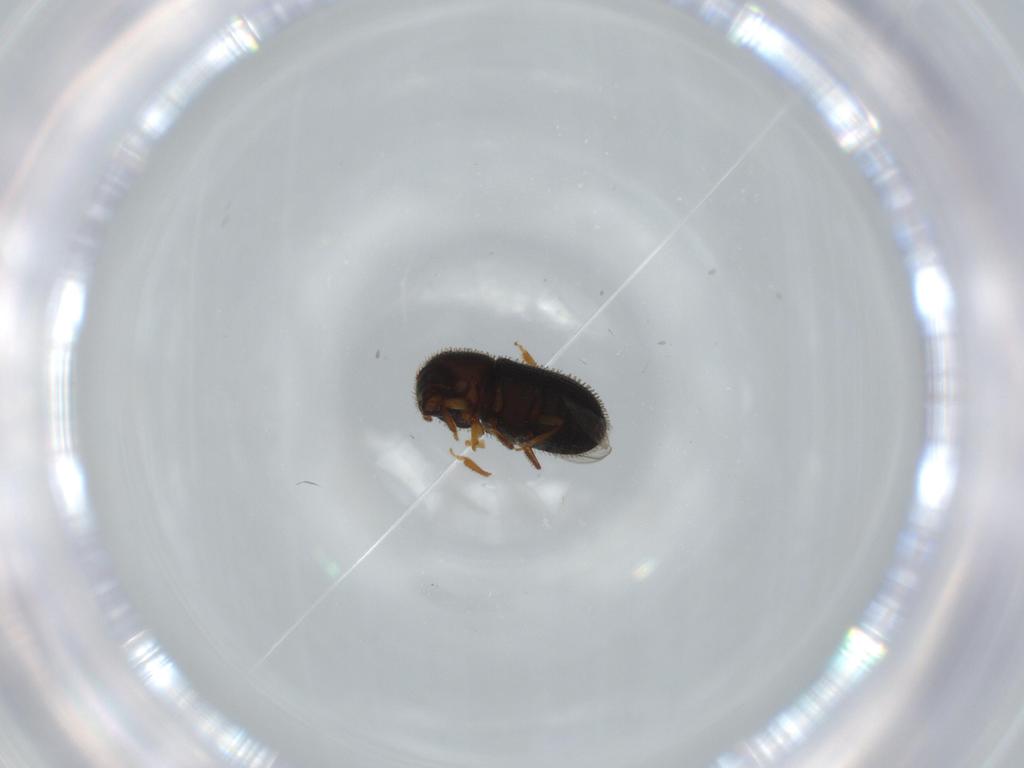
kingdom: Animalia
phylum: Arthropoda
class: Insecta
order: Coleoptera
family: Curculionidae
